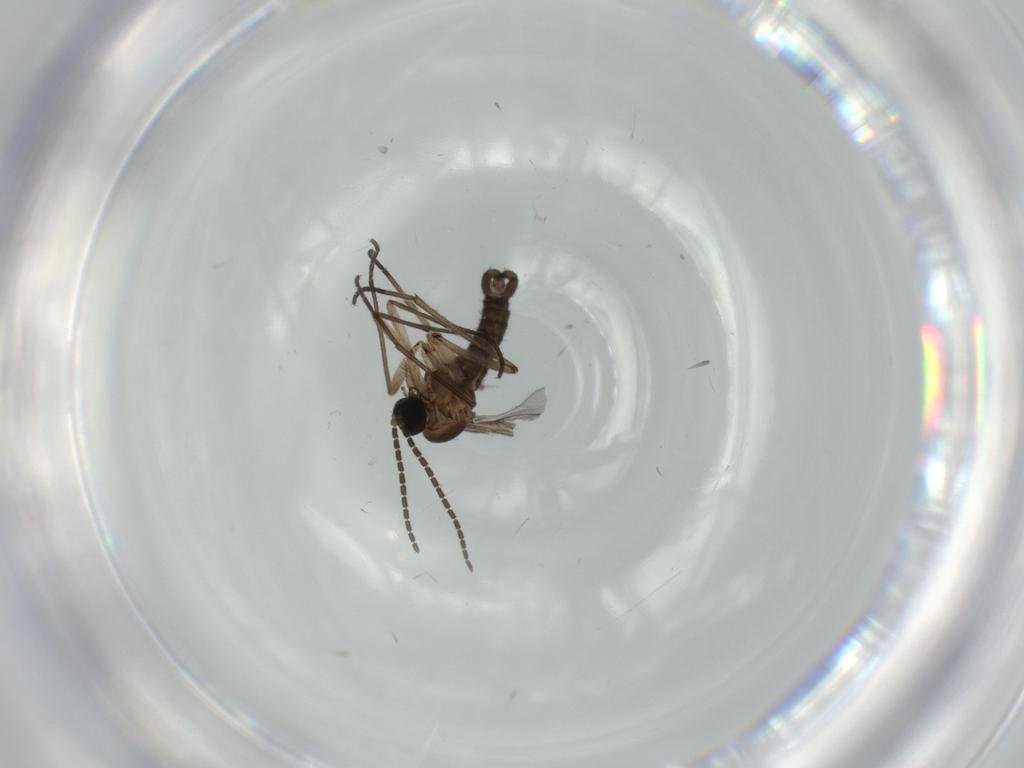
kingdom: Animalia
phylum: Arthropoda
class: Insecta
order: Diptera
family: Sciaridae
